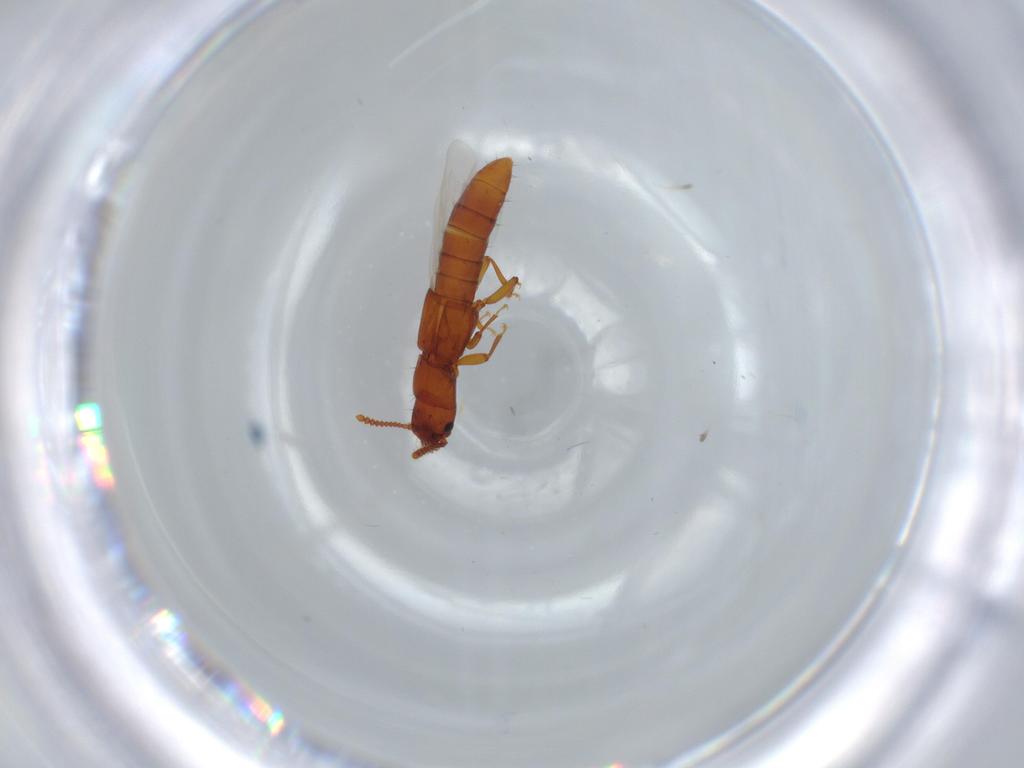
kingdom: Animalia
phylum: Arthropoda
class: Insecta
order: Coleoptera
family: Staphylinidae
